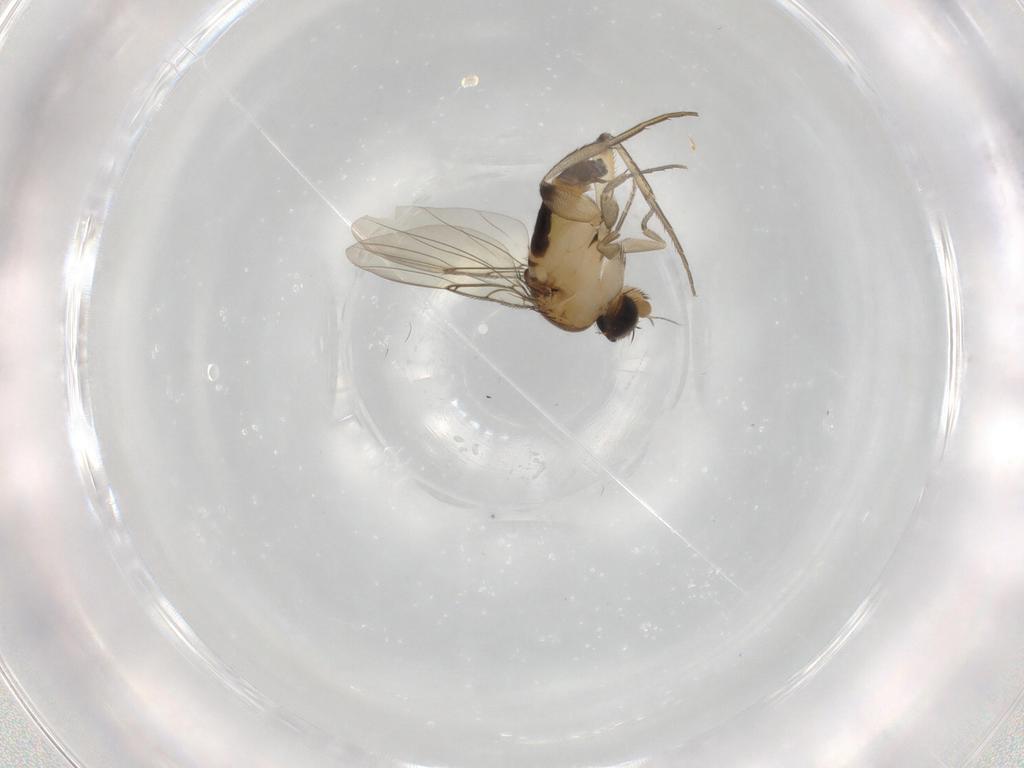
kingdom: Animalia
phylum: Arthropoda
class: Insecta
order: Diptera
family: Phoridae
